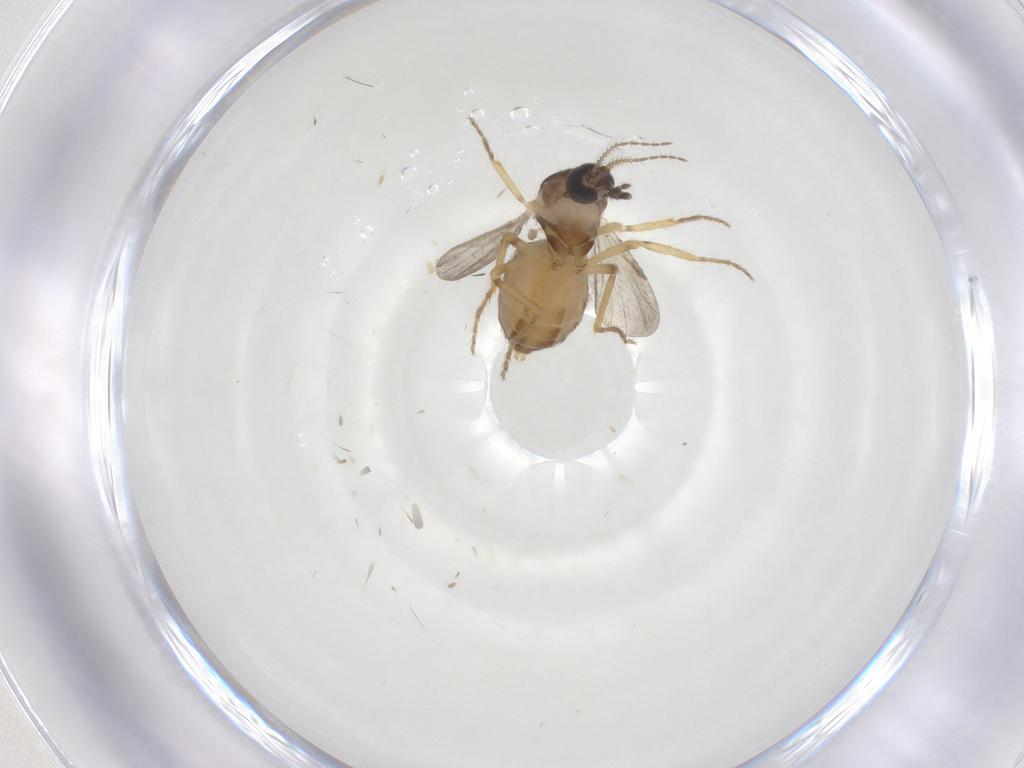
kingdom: Animalia
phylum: Arthropoda
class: Insecta
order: Diptera
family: Ceratopogonidae
